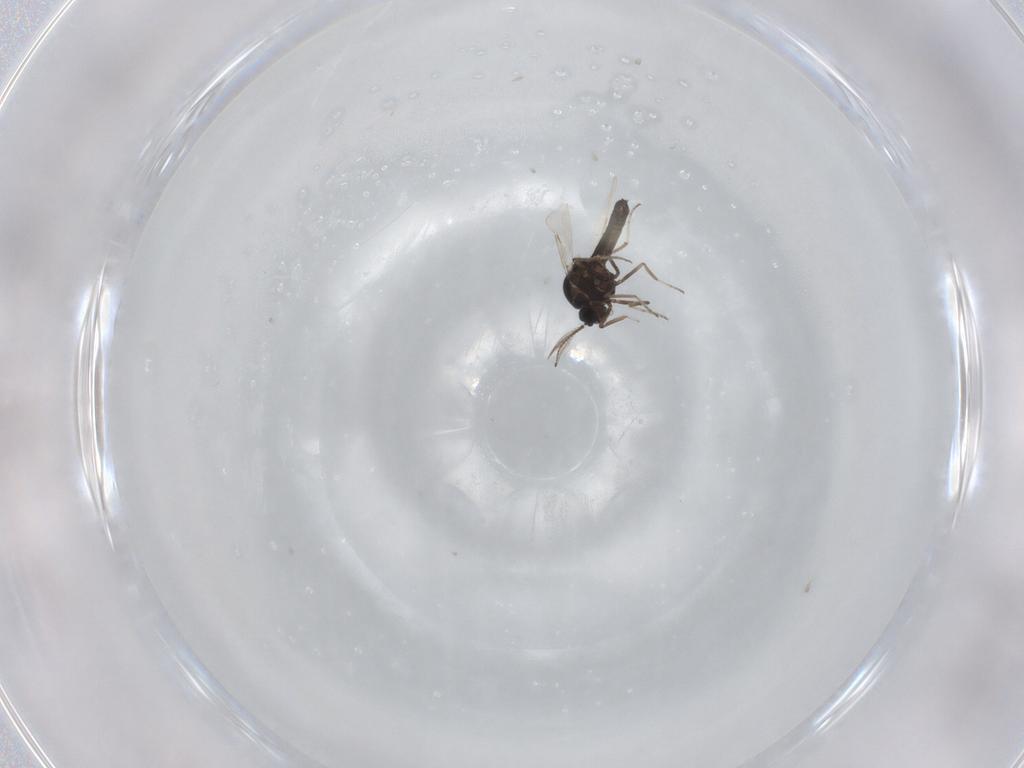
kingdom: Animalia
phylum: Arthropoda
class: Insecta
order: Diptera
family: Ceratopogonidae
